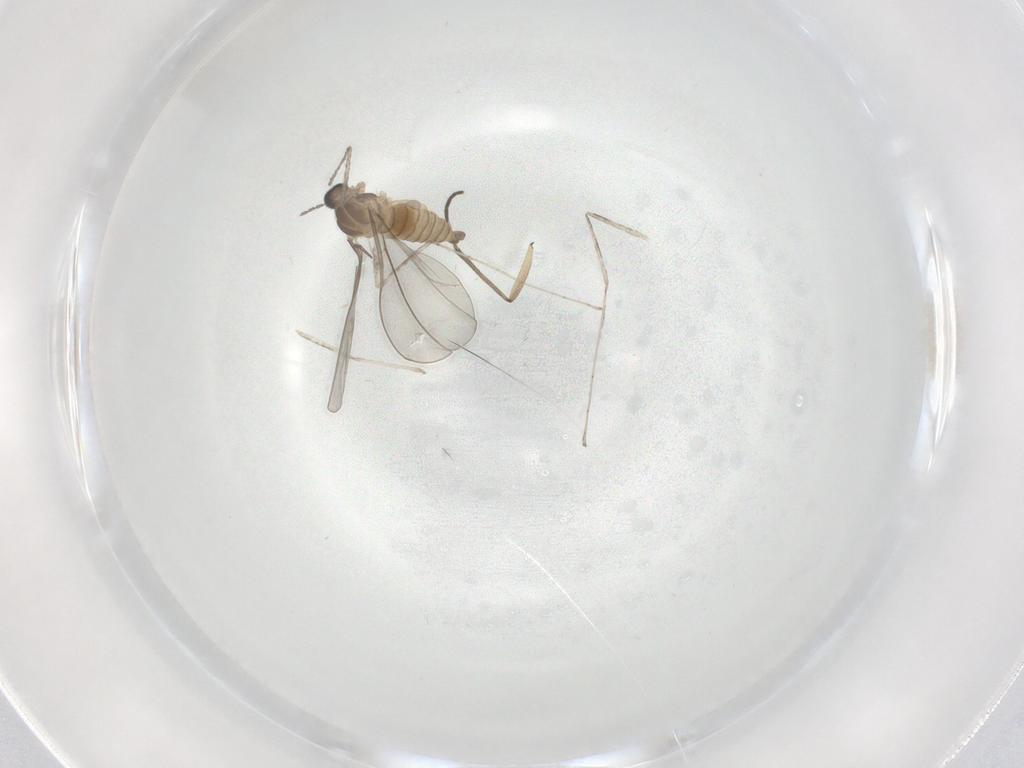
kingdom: Animalia
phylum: Arthropoda
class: Insecta
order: Diptera
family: Cecidomyiidae
